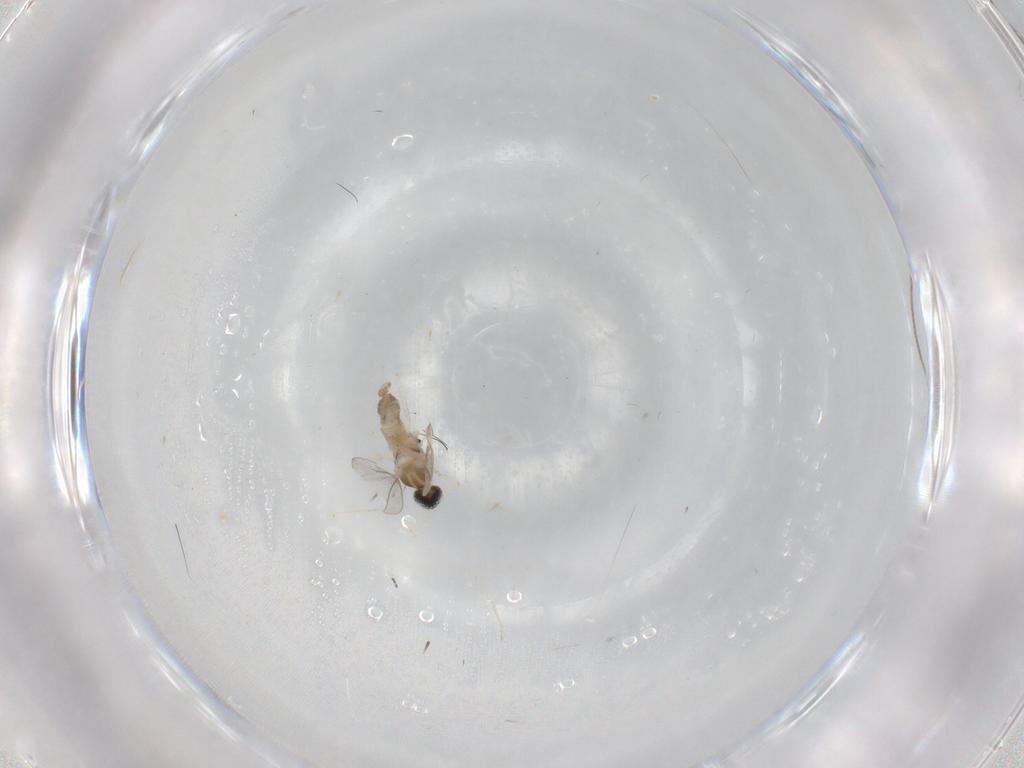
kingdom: Animalia
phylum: Arthropoda
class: Insecta
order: Diptera
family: Cecidomyiidae
